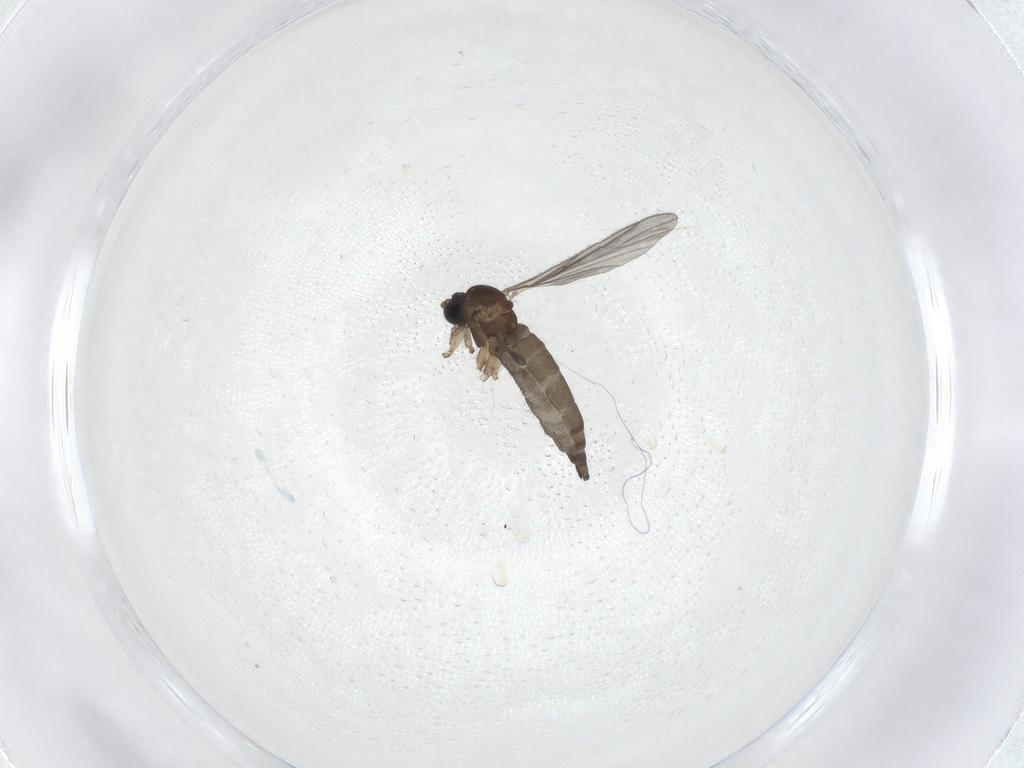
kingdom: Animalia
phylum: Arthropoda
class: Insecta
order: Diptera
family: Sciaridae
